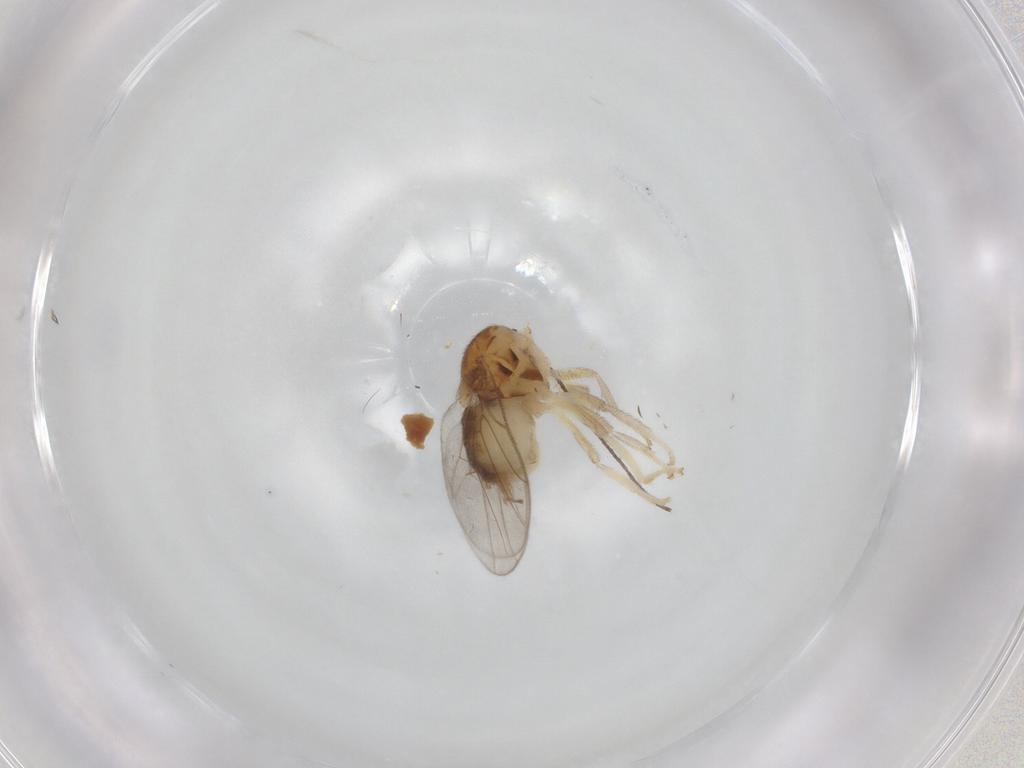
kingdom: Animalia
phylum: Arthropoda
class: Insecta
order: Diptera
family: Chloropidae
